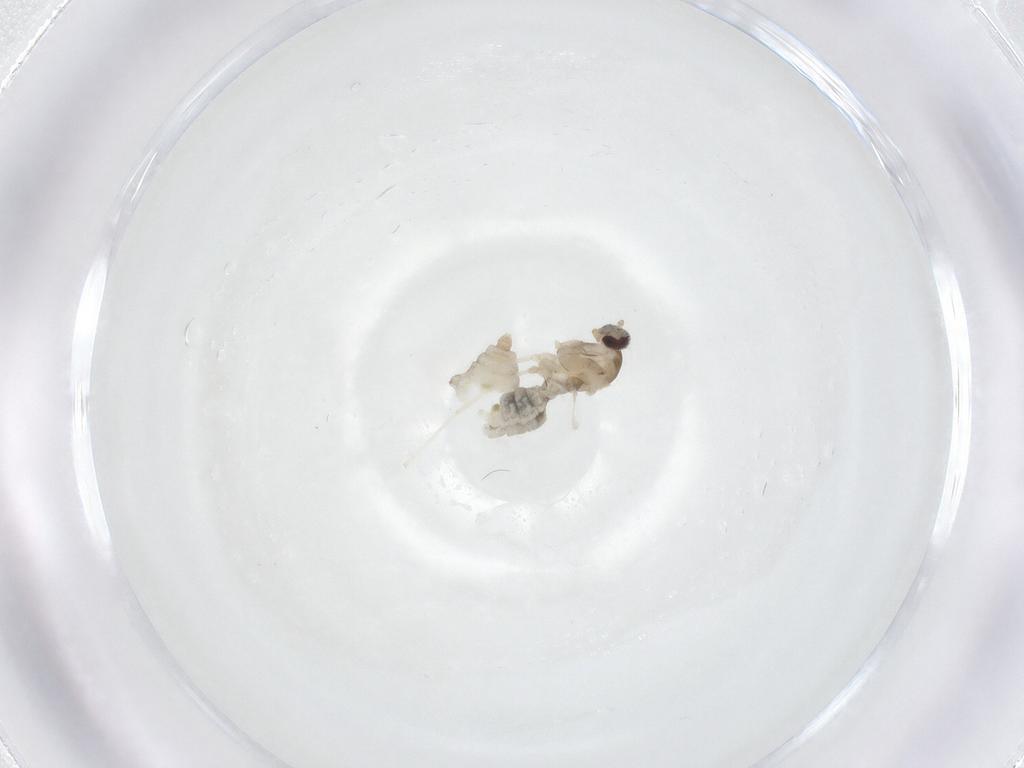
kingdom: Animalia
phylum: Arthropoda
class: Insecta
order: Diptera
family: Cecidomyiidae
